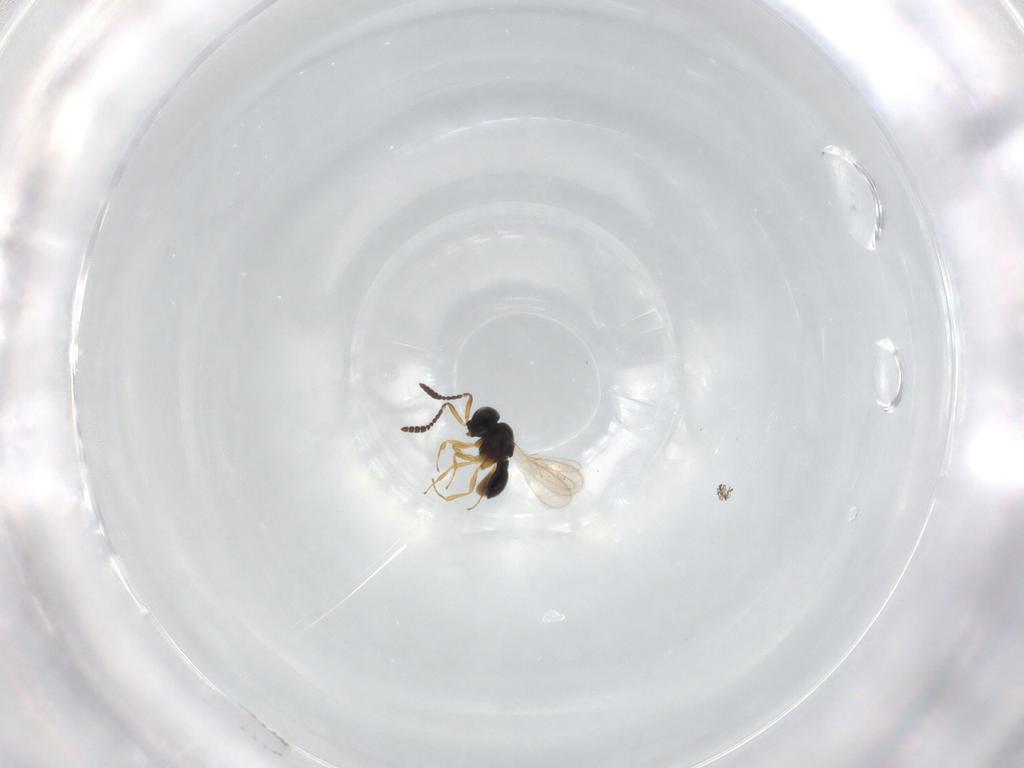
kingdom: Animalia
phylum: Arthropoda
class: Insecta
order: Hymenoptera
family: Scelionidae
